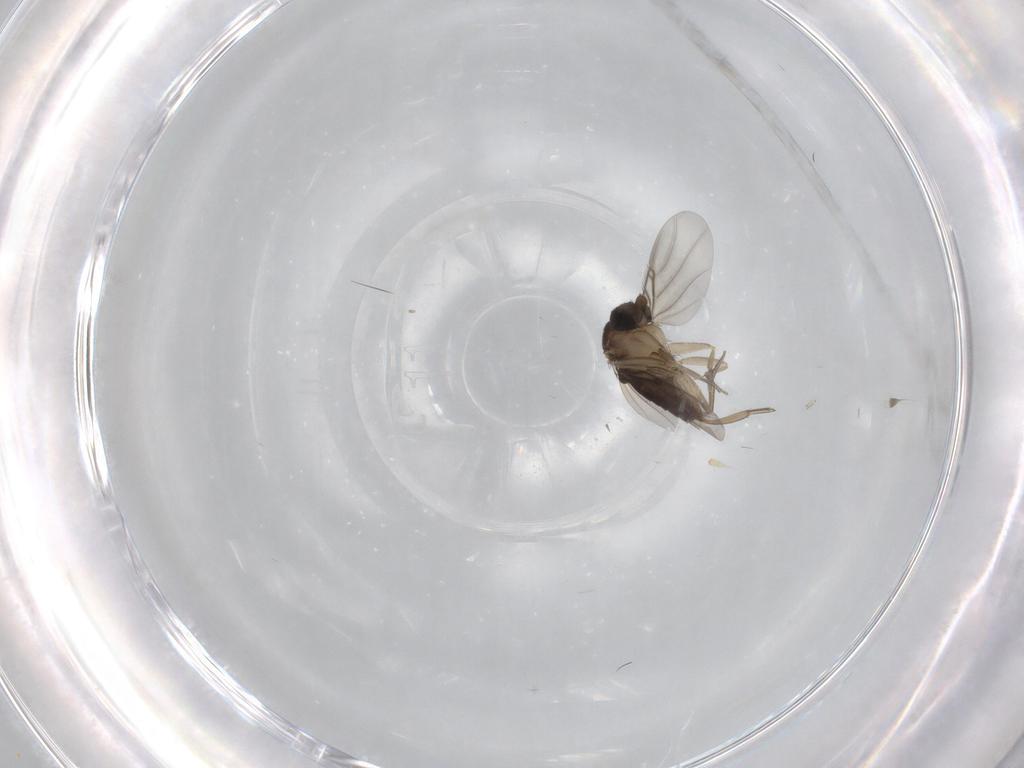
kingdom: Animalia
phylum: Arthropoda
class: Insecta
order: Diptera
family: Phoridae
